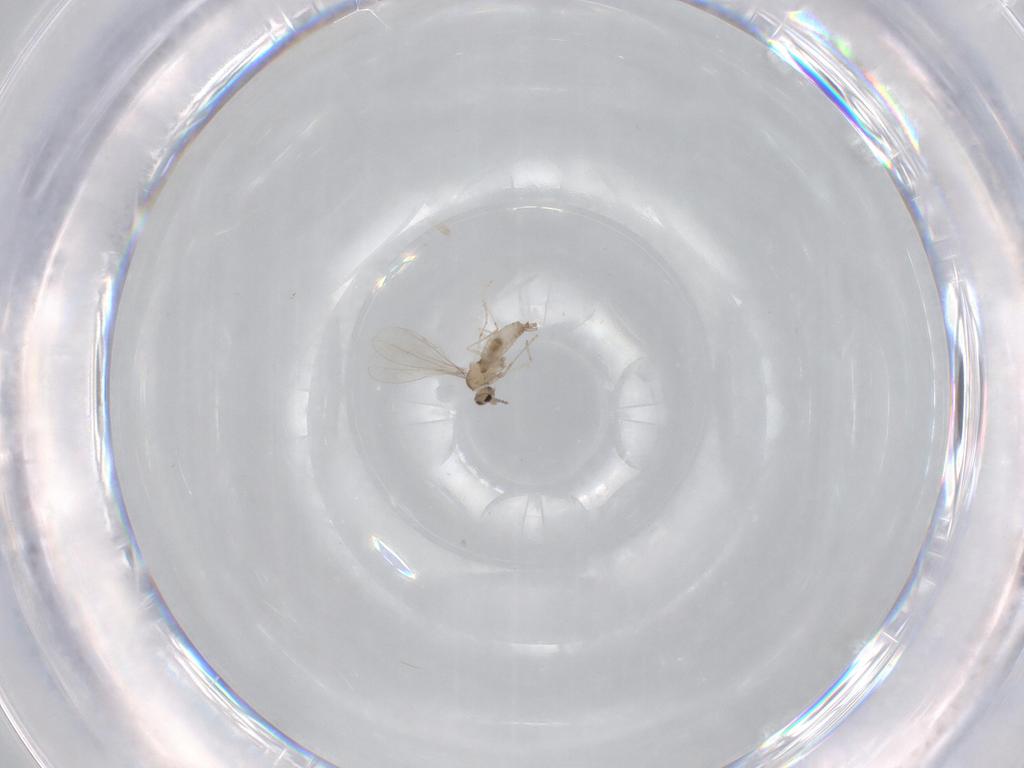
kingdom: Animalia
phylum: Arthropoda
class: Insecta
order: Diptera
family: Cecidomyiidae
